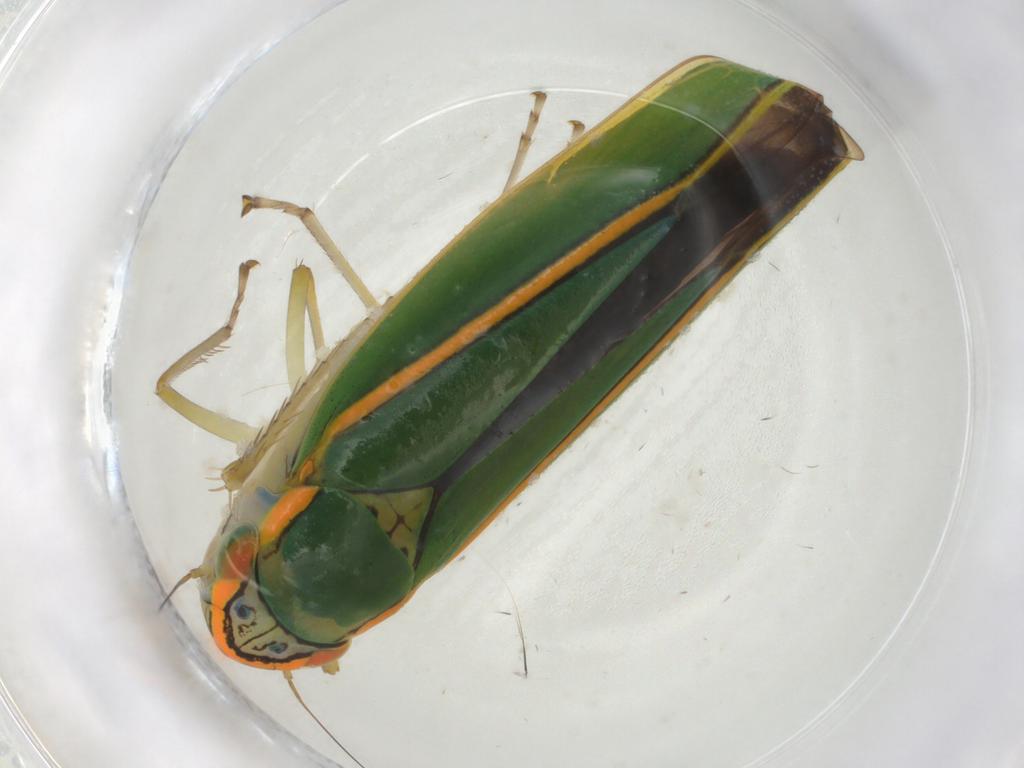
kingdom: Animalia
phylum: Arthropoda
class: Insecta
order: Hemiptera
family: Cicadellidae
